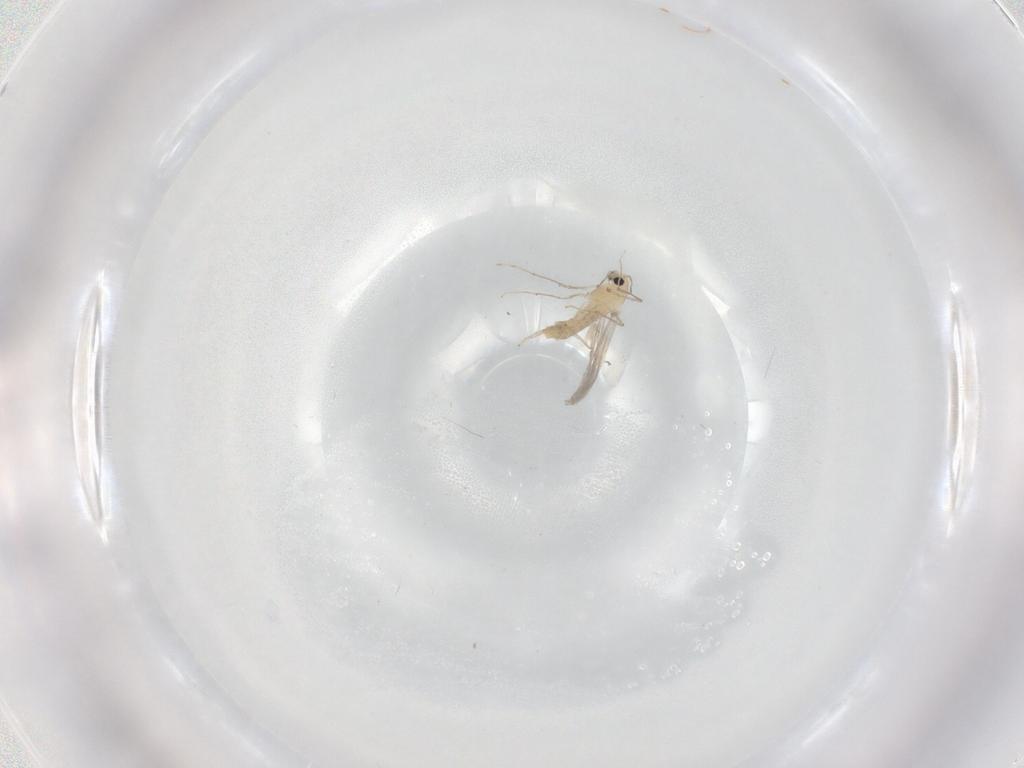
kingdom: Animalia
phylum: Arthropoda
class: Insecta
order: Diptera
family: Chironomidae
